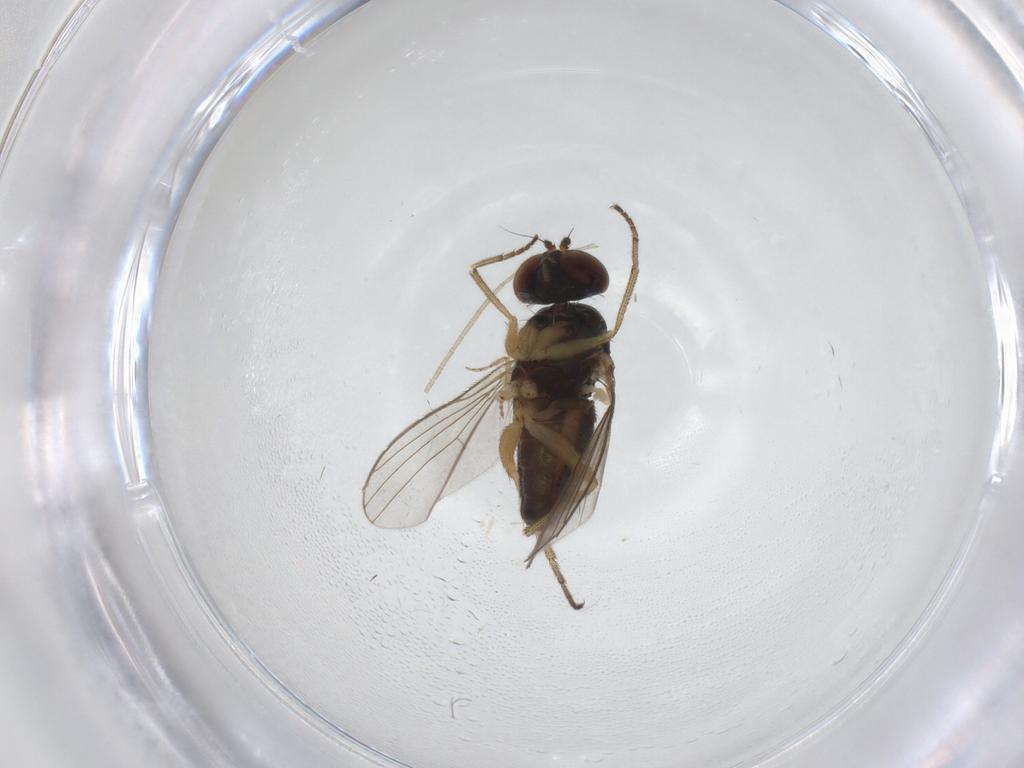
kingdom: Animalia
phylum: Arthropoda
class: Insecta
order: Diptera
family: Dolichopodidae
